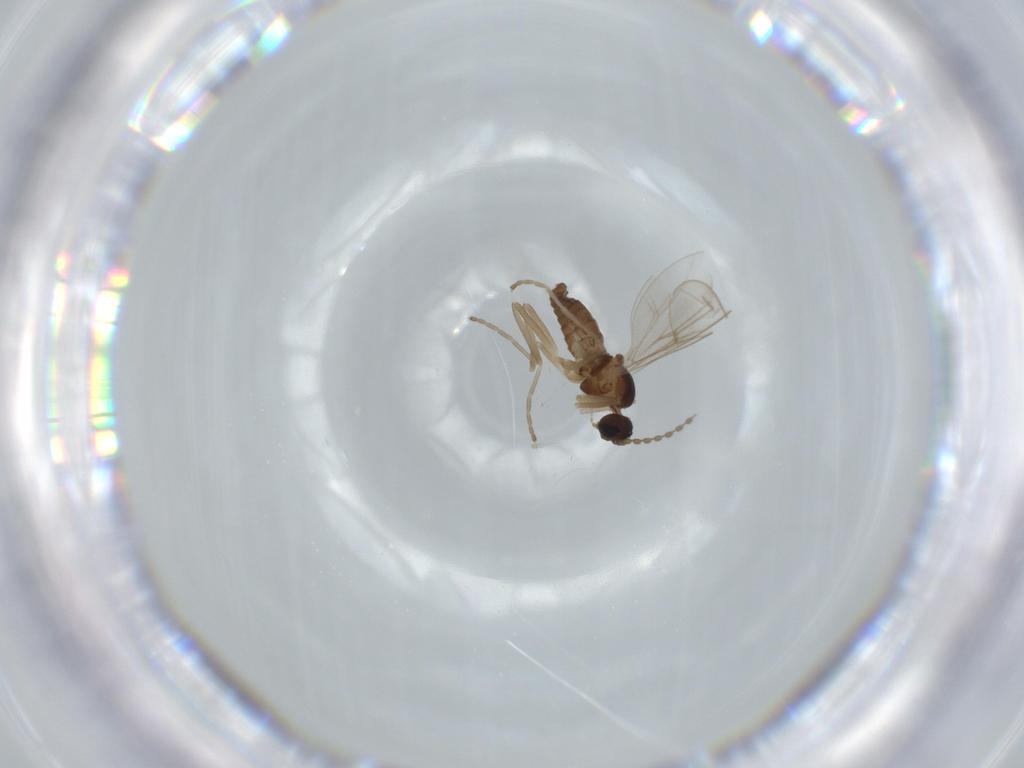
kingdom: Animalia
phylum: Arthropoda
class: Insecta
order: Diptera
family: Cecidomyiidae
